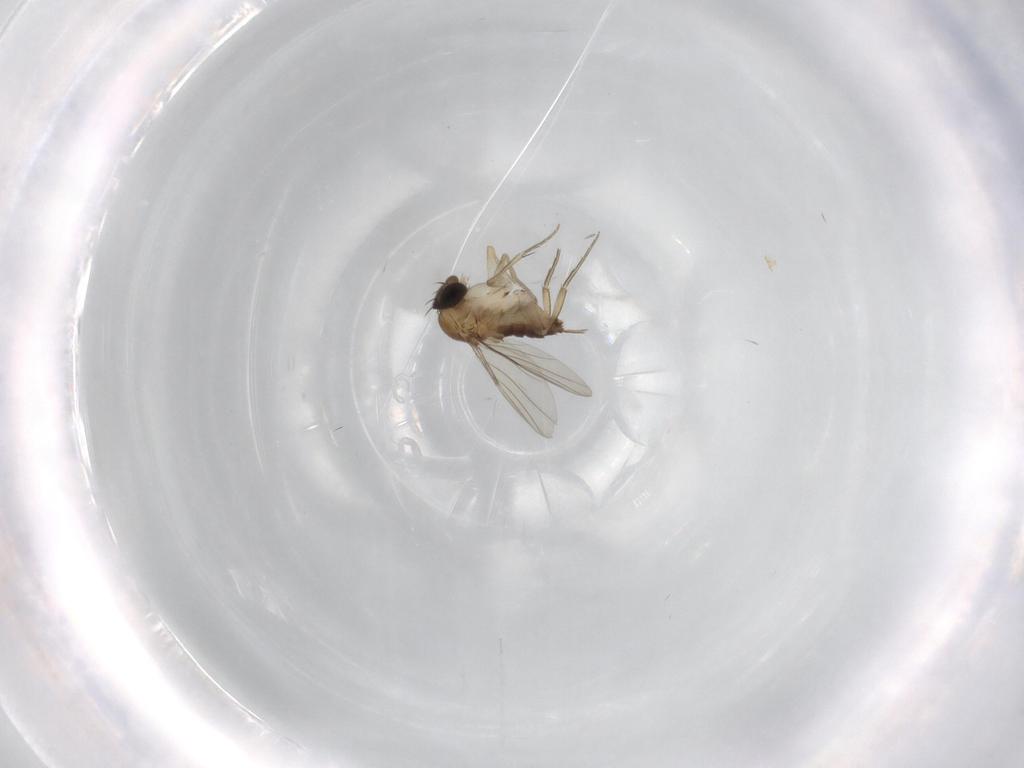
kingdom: Animalia
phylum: Arthropoda
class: Insecta
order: Diptera
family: Phoridae
